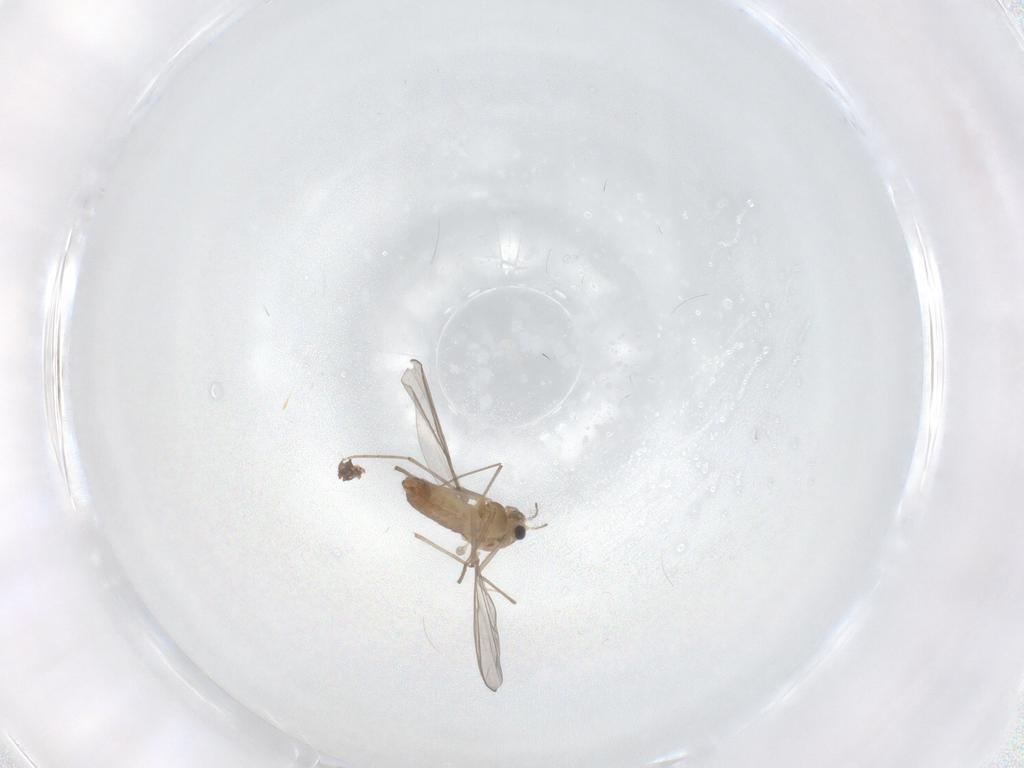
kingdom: Animalia
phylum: Arthropoda
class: Insecta
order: Diptera
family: Chironomidae
